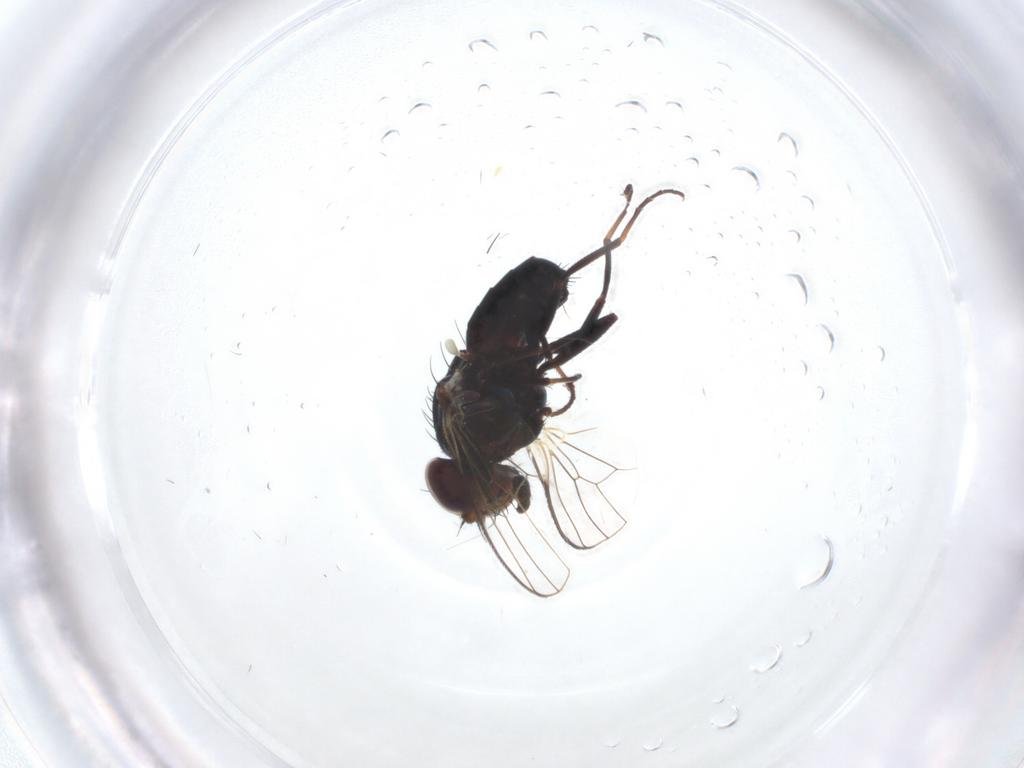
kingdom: Animalia
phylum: Arthropoda
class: Insecta
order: Diptera
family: Carnidae
